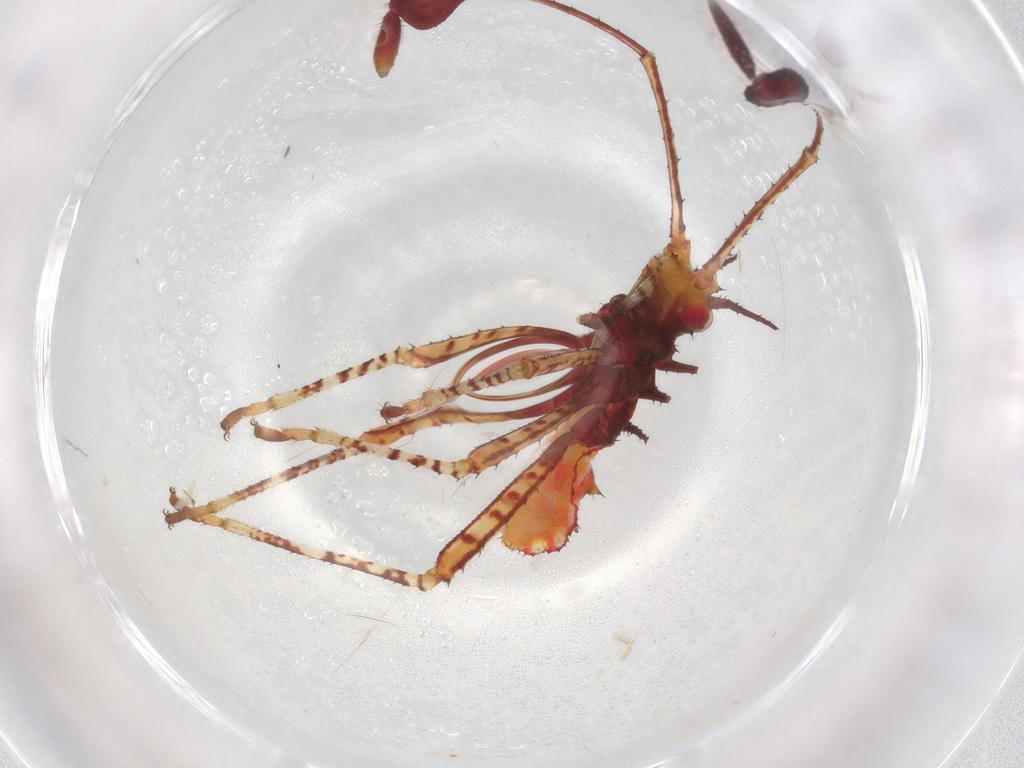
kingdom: Animalia
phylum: Arthropoda
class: Insecta
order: Hemiptera
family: Coreidae
